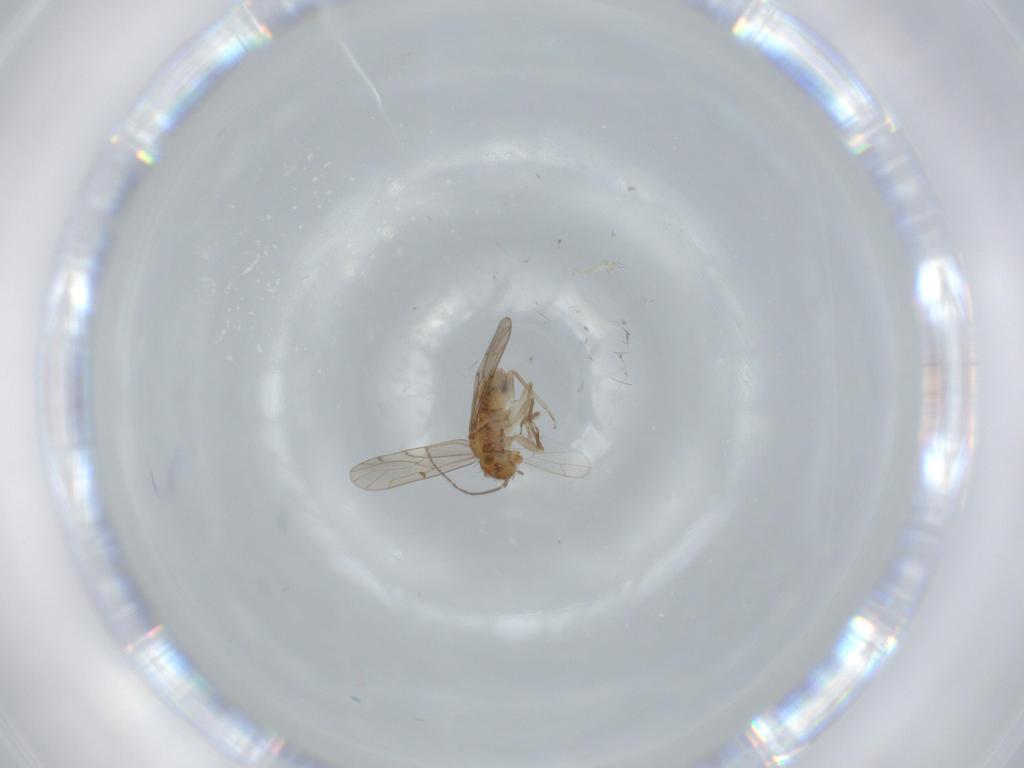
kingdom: Animalia
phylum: Arthropoda
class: Insecta
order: Psocodea
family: Ectopsocidae
